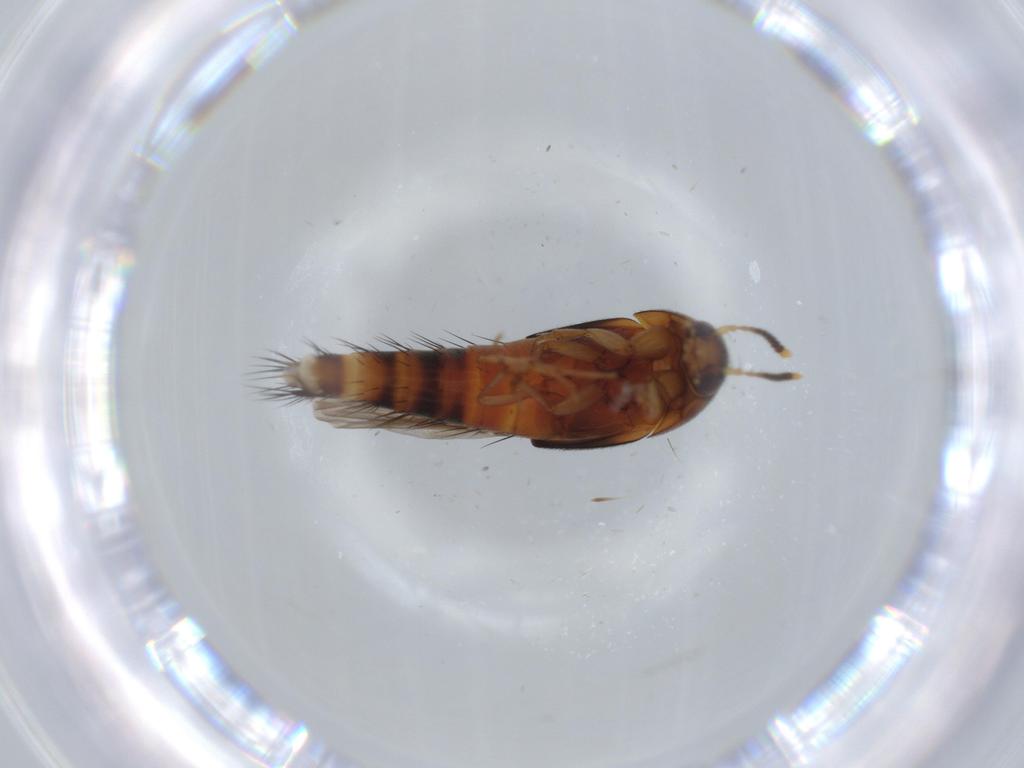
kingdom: Animalia
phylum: Arthropoda
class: Insecta
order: Coleoptera
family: Staphylinidae
